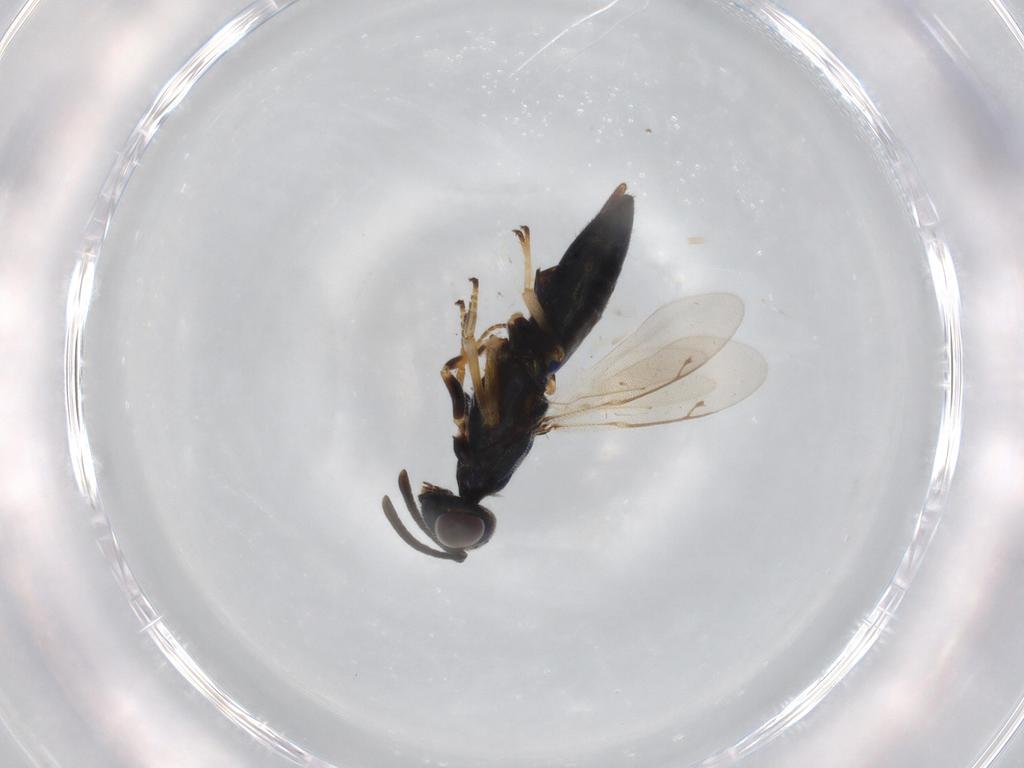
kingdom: Animalia
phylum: Arthropoda
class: Insecta
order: Hymenoptera
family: Eupelmidae
